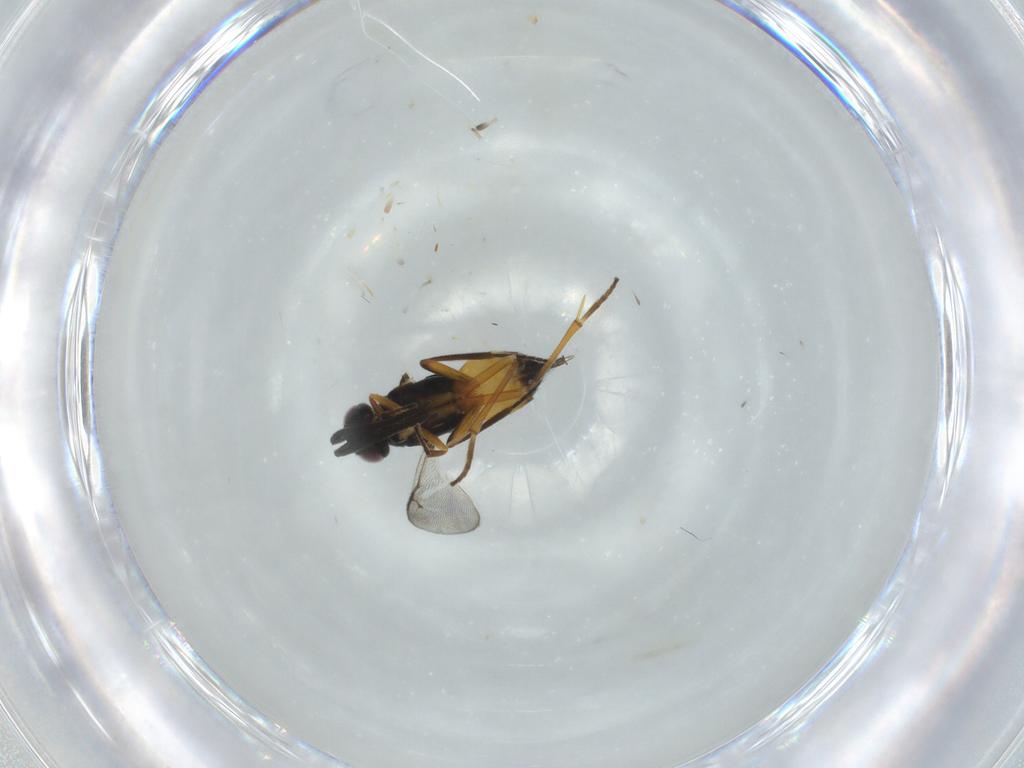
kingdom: Animalia
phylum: Arthropoda
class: Insecta
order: Hymenoptera
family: Encyrtidae
